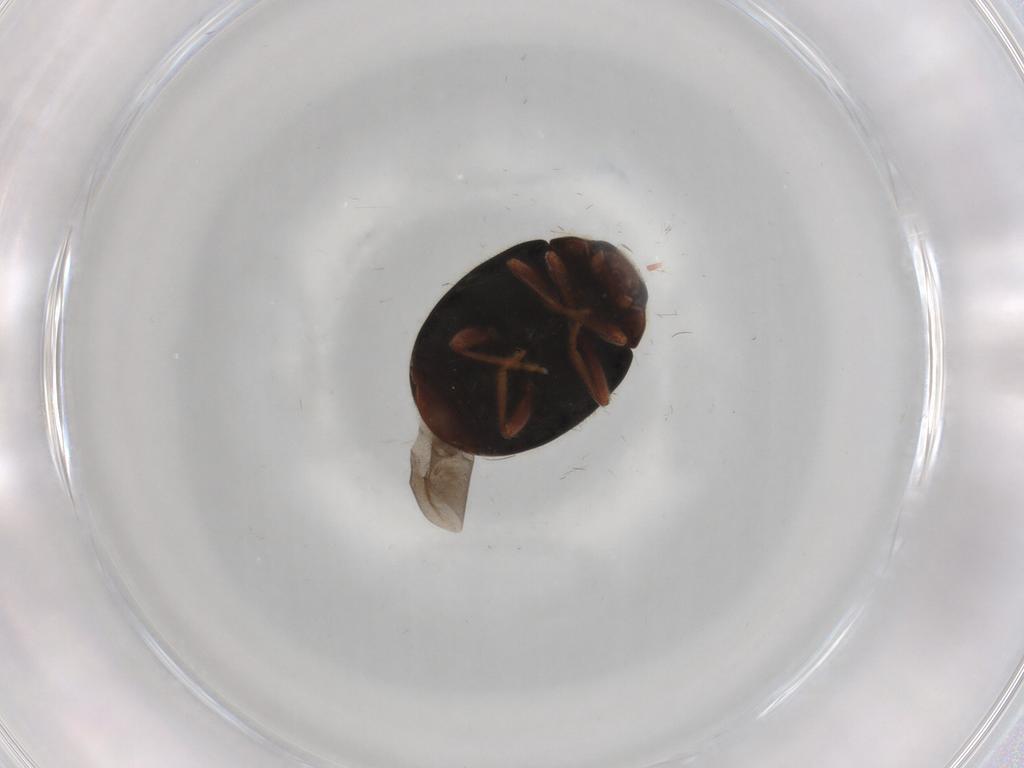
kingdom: Animalia
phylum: Arthropoda
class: Insecta
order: Coleoptera
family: Coccinellidae
